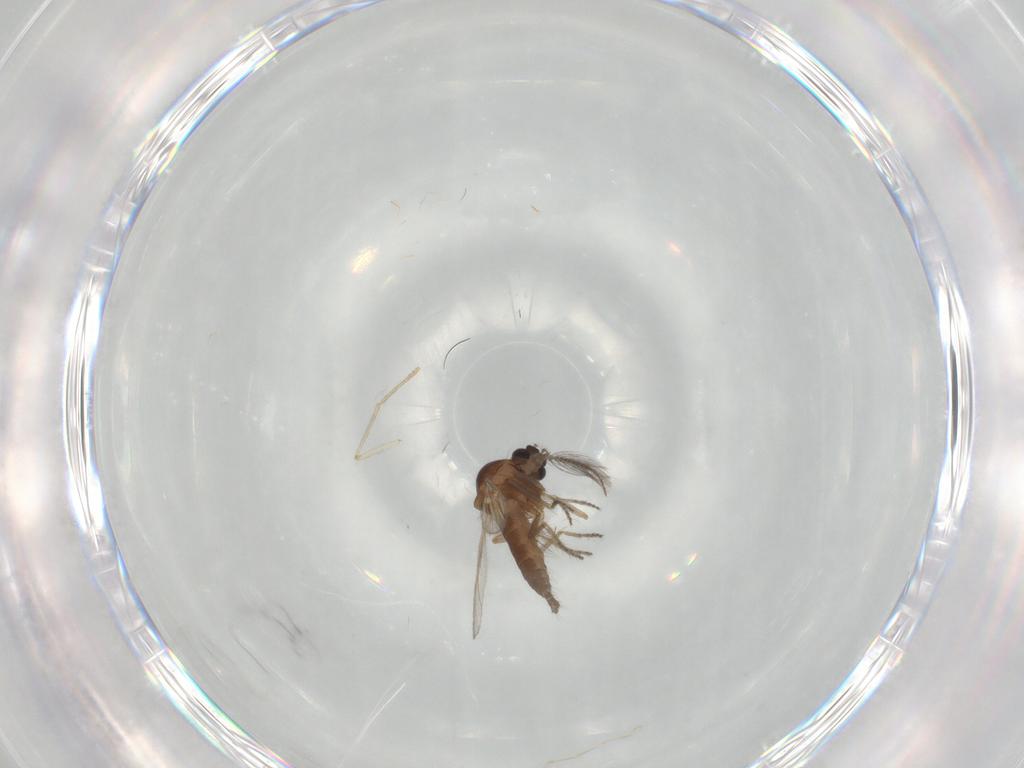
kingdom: Animalia
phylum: Arthropoda
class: Insecta
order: Diptera
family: Ceratopogonidae
